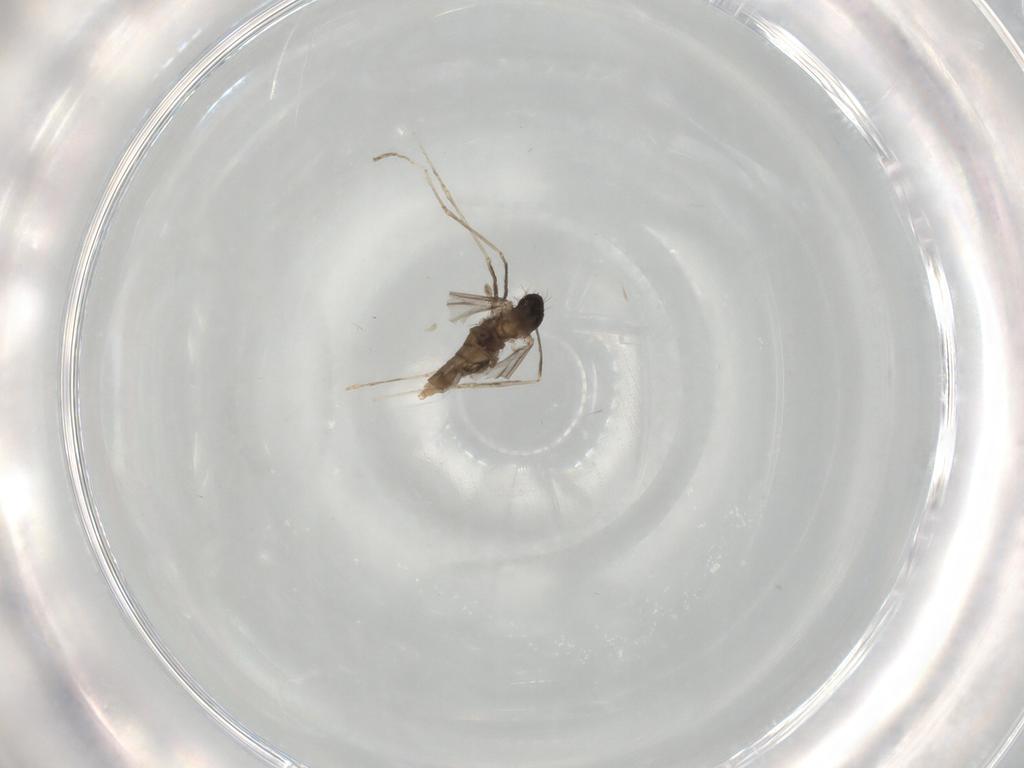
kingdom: Animalia
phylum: Arthropoda
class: Insecta
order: Diptera
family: Cecidomyiidae
